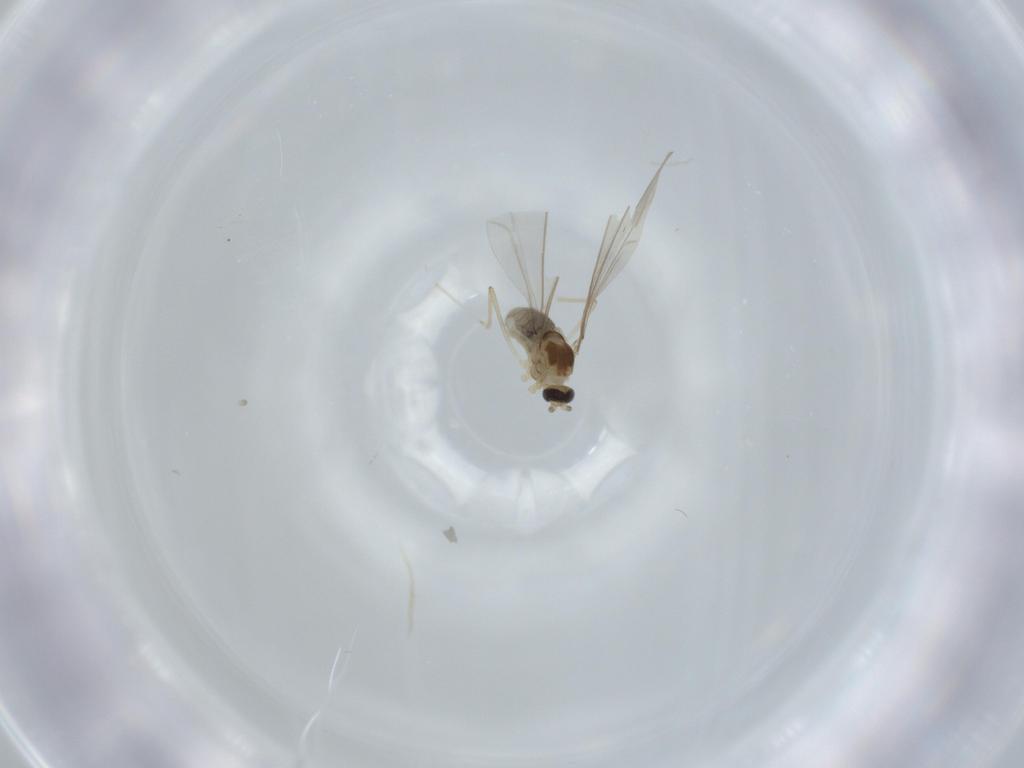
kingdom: Animalia
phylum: Arthropoda
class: Insecta
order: Diptera
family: Cecidomyiidae
